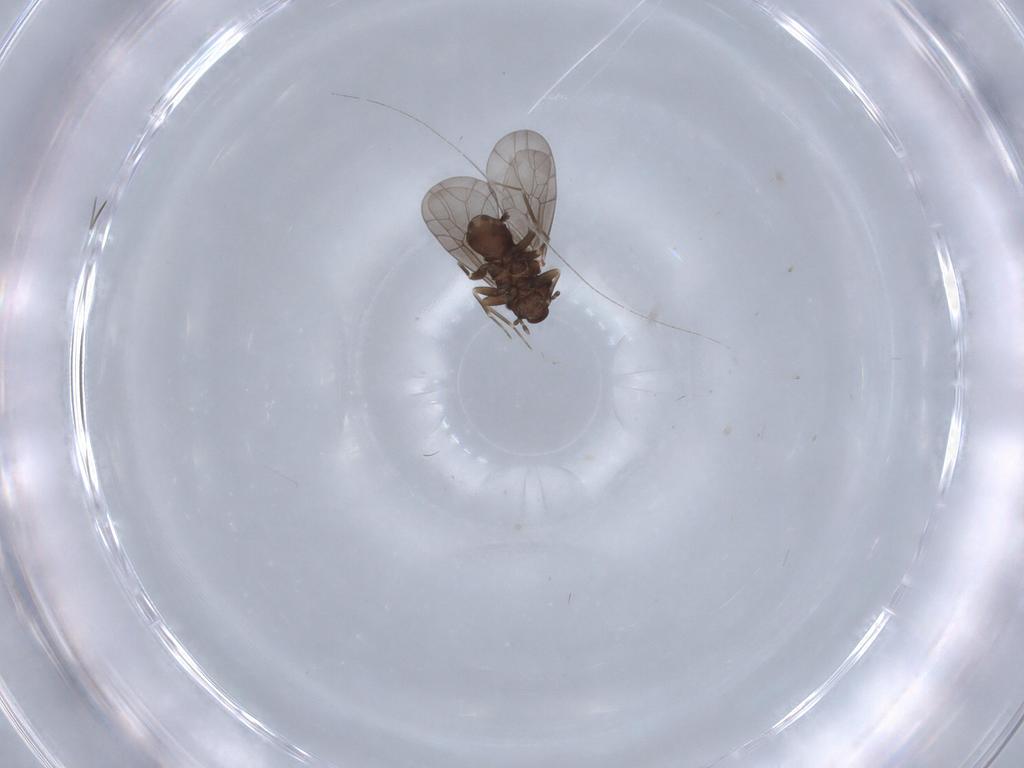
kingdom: Animalia
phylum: Arthropoda
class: Insecta
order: Psocodea
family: Lepidopsocidae
